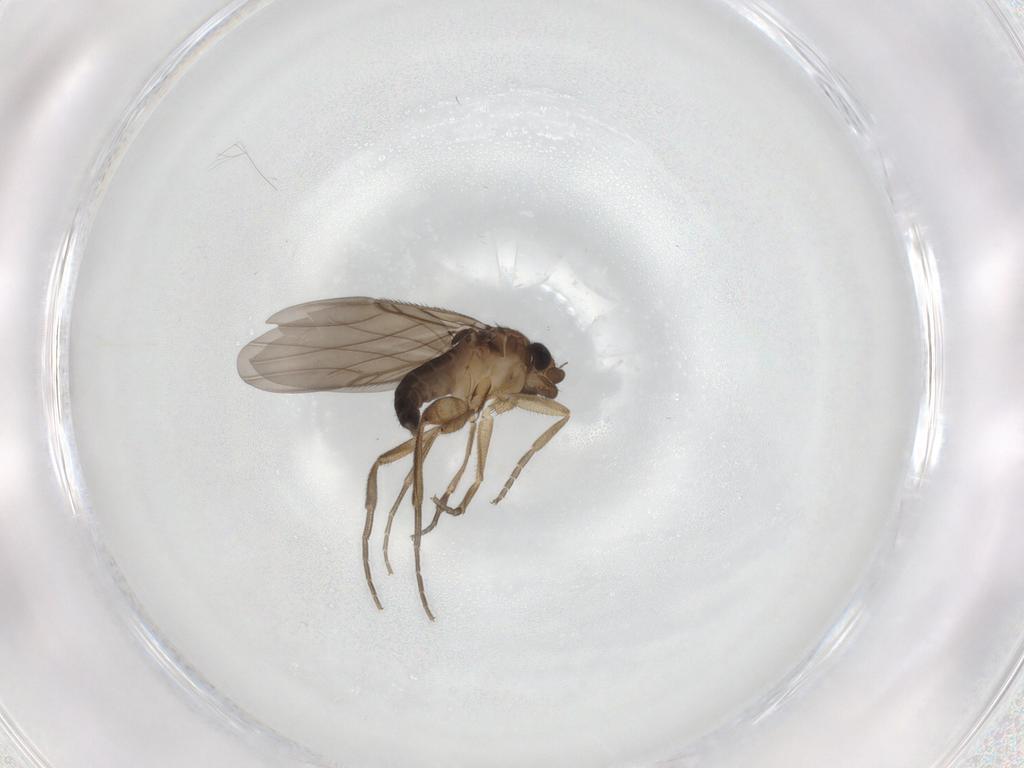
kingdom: Animalia
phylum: Arthropoda
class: Insecta
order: Diptera
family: Phoridae
